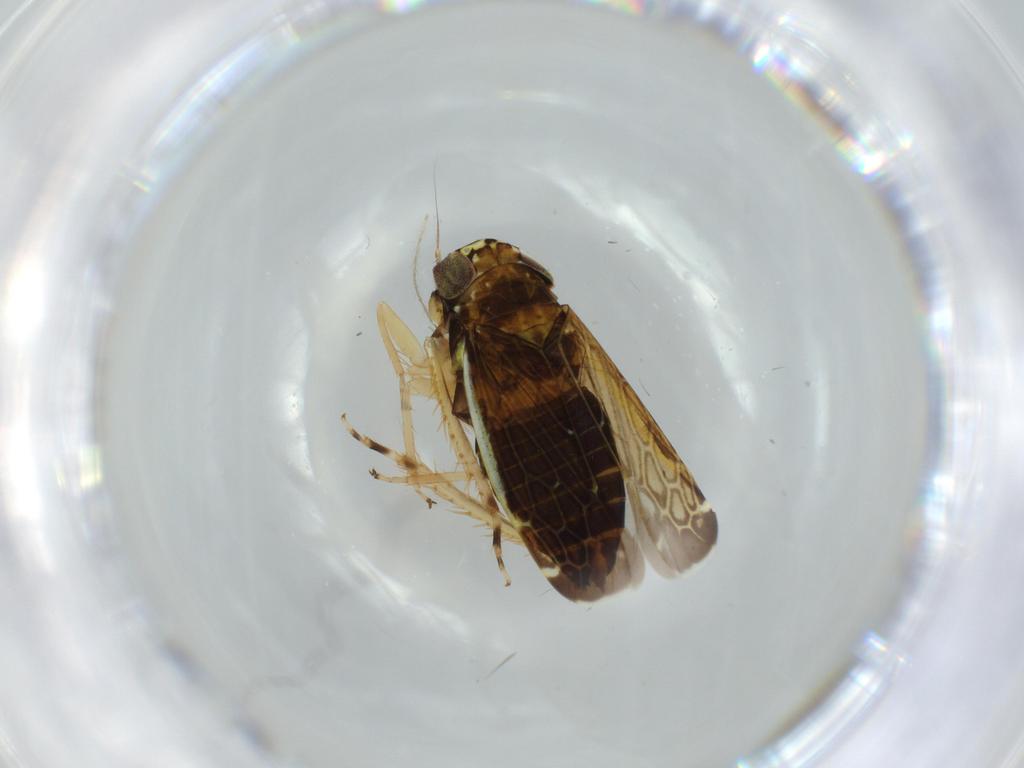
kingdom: Animalia
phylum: Arthropoda
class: Insecta
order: Hemiptera
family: Cicadellidae
